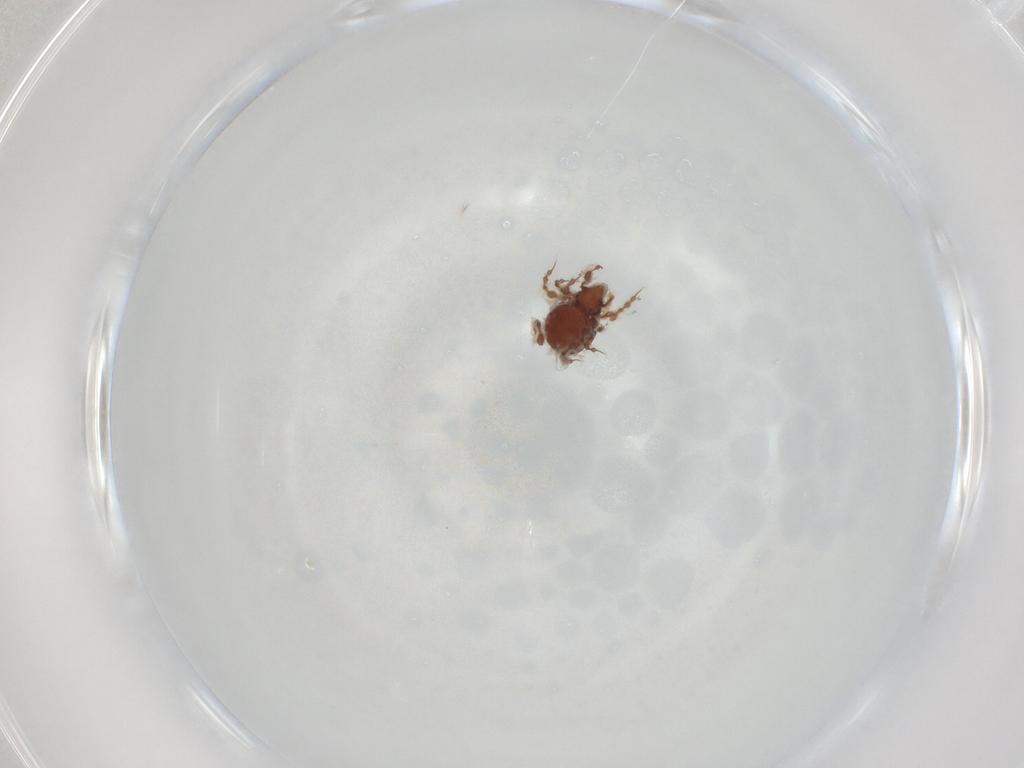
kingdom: Animalia
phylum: Arthropoda
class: Arachnida
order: Sarcoptiformes
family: Damaeidae
